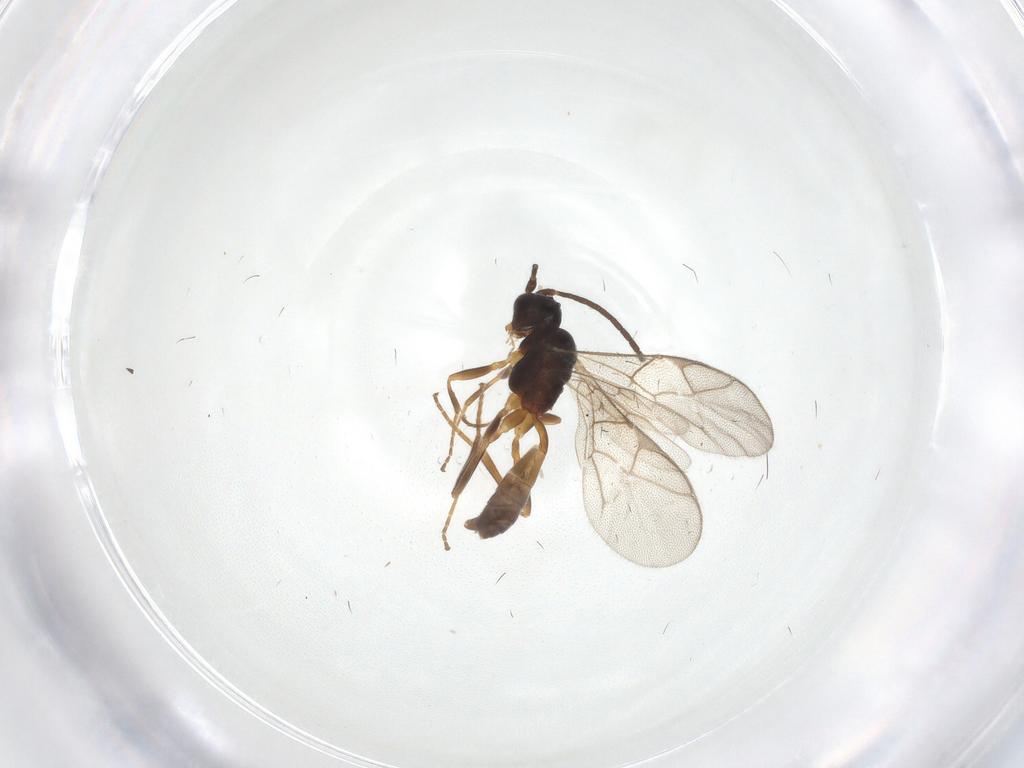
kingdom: Animalia
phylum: Arthropoda
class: Insecta
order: Hymenoptera
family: Ichneumonidae
